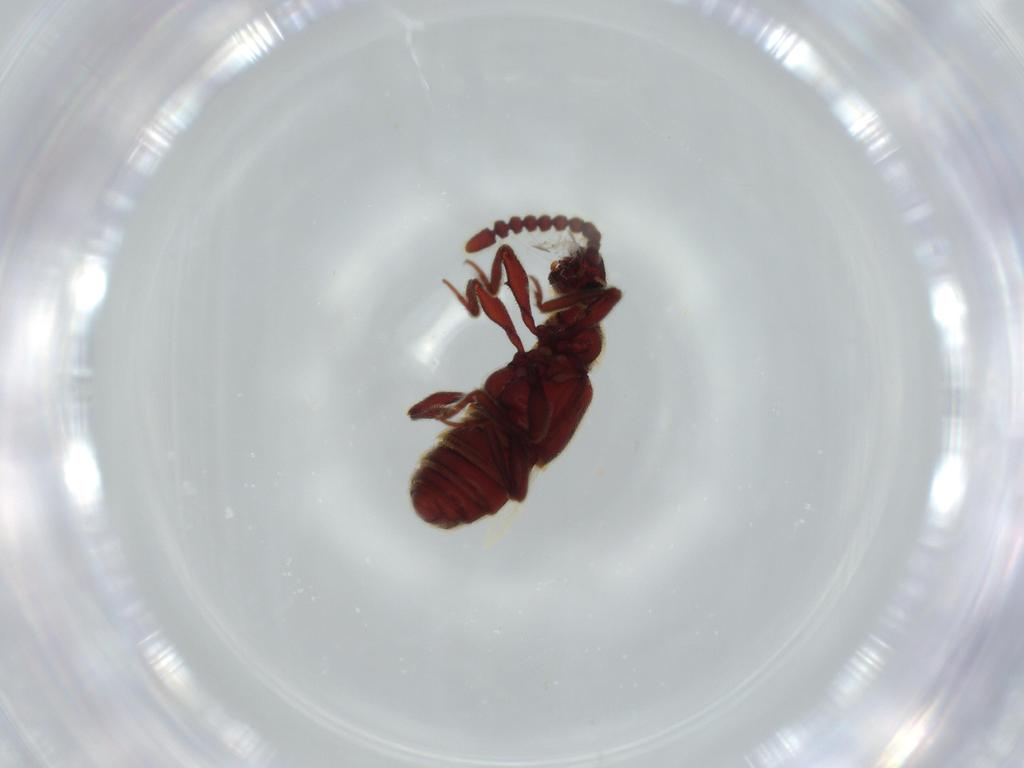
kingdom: Animalia
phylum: Arthropoda
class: Insecta
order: Coleoptera
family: Staphylinidae
